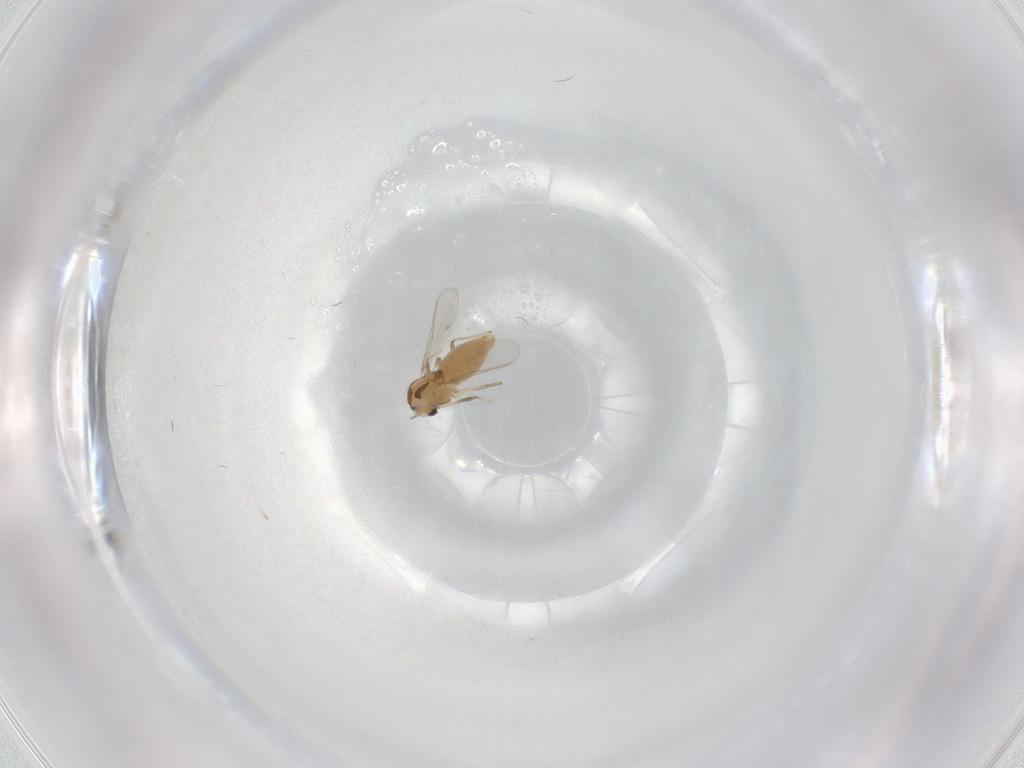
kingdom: Animalia
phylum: Arthropoda
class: Insecta
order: Diptera
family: Chironomidae
